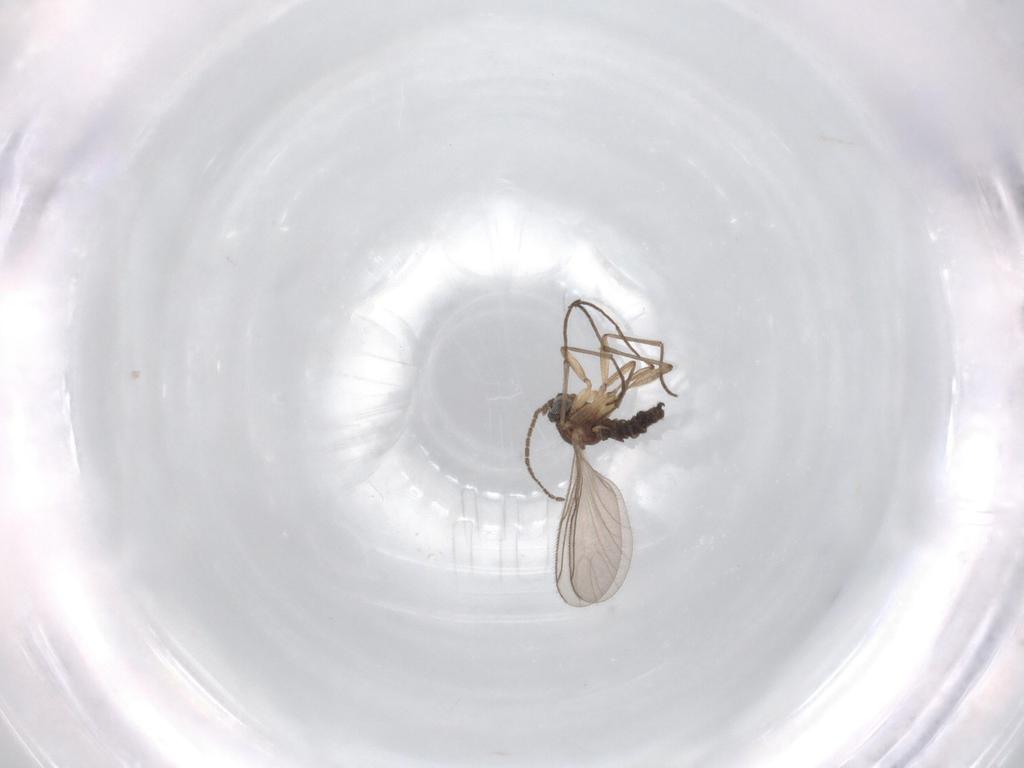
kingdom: Animalia
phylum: Arthropoda
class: Insecta
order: Diptera
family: Sciaridae
